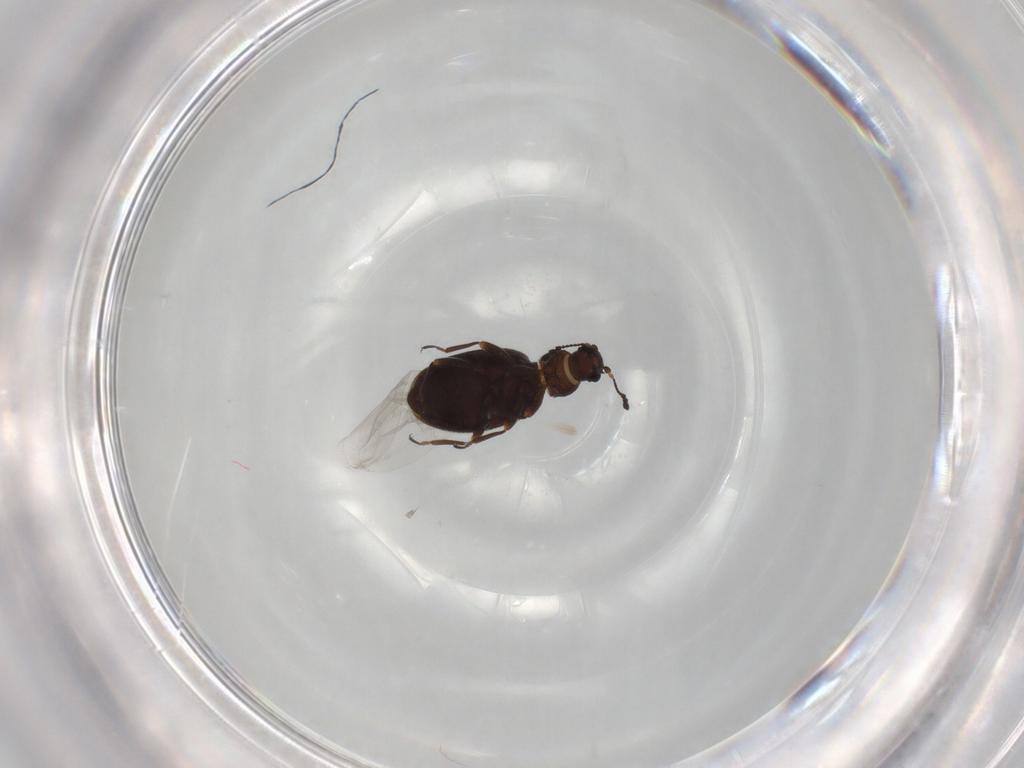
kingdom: Animalia
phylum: Arthropoda
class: Insecta
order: Coleoptera
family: Latridiidae
